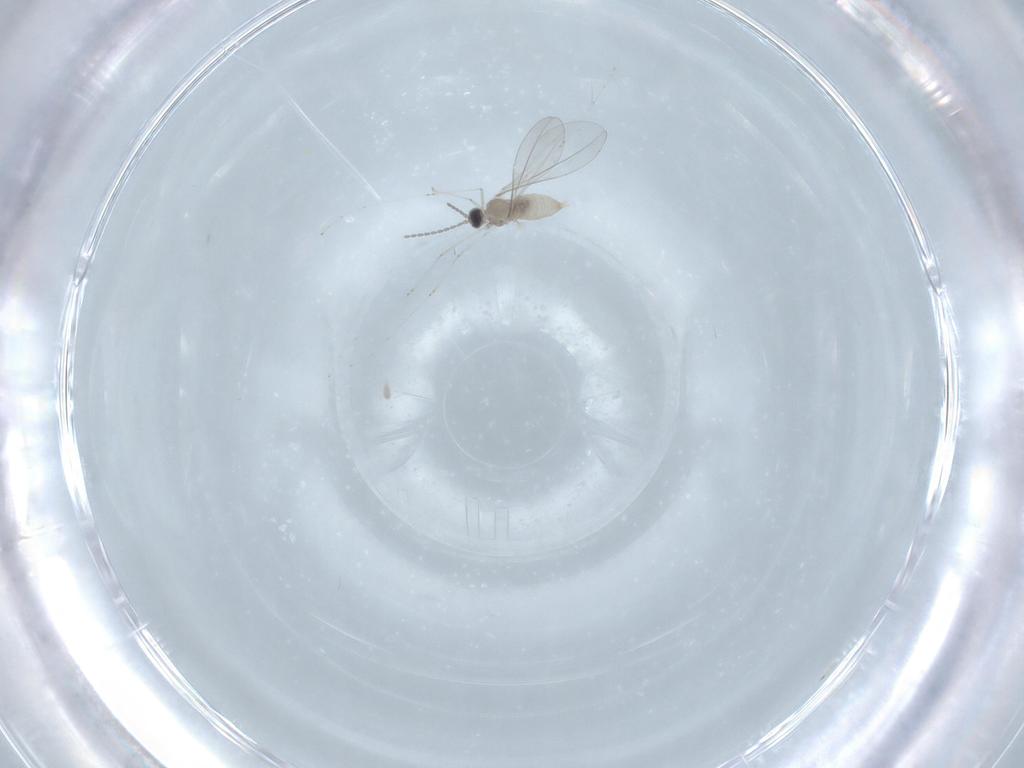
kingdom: Animalia
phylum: Arthropoda
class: Insecta
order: Diptera
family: Cecidomyiidae
